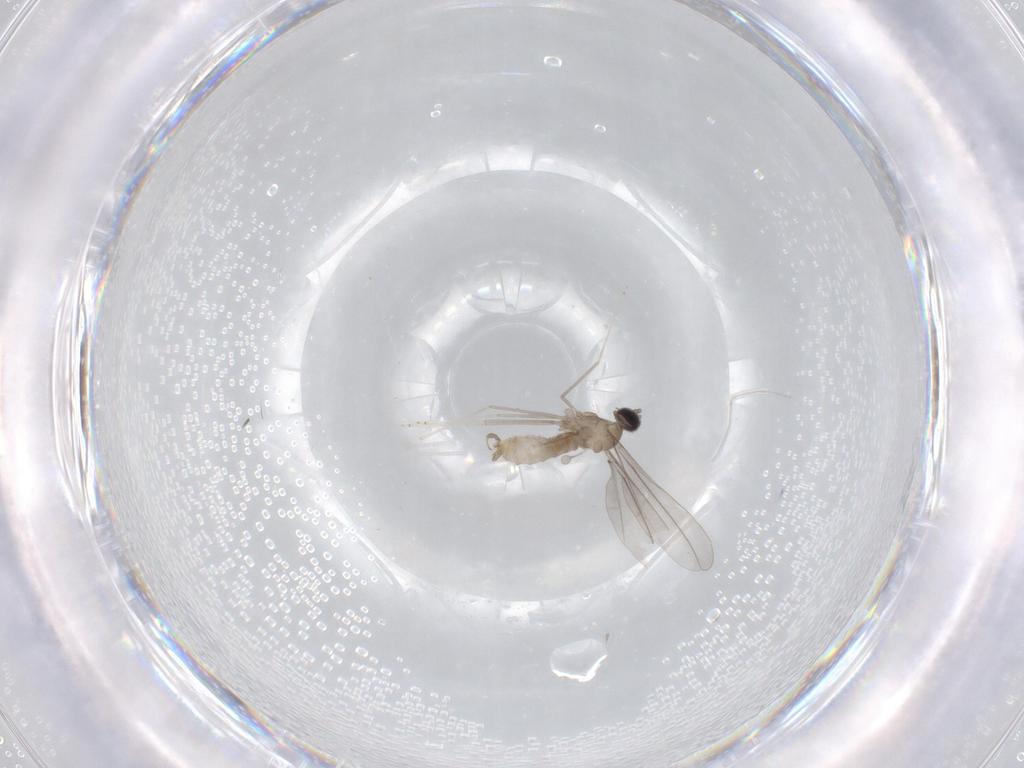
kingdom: Animalia
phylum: Arthropoda
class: Insecta
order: Diptera
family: Cecidomyiidae
